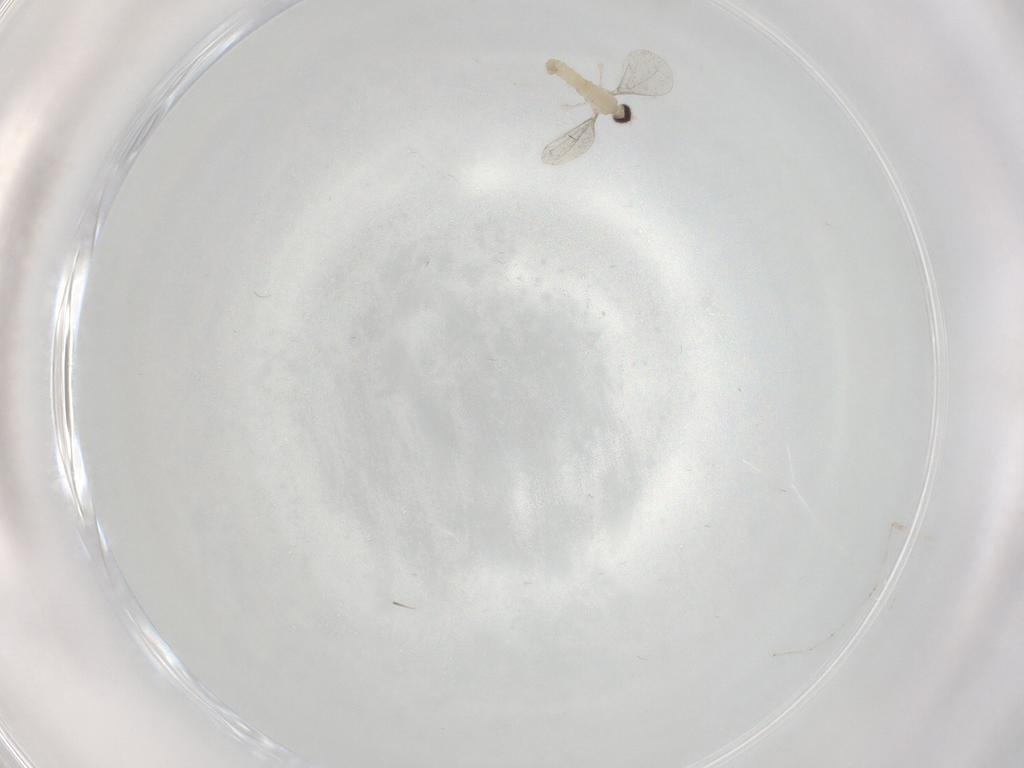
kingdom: Animalia
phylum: Arthropoda
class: Insecta
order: Diptera
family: Cecidomyiidae
